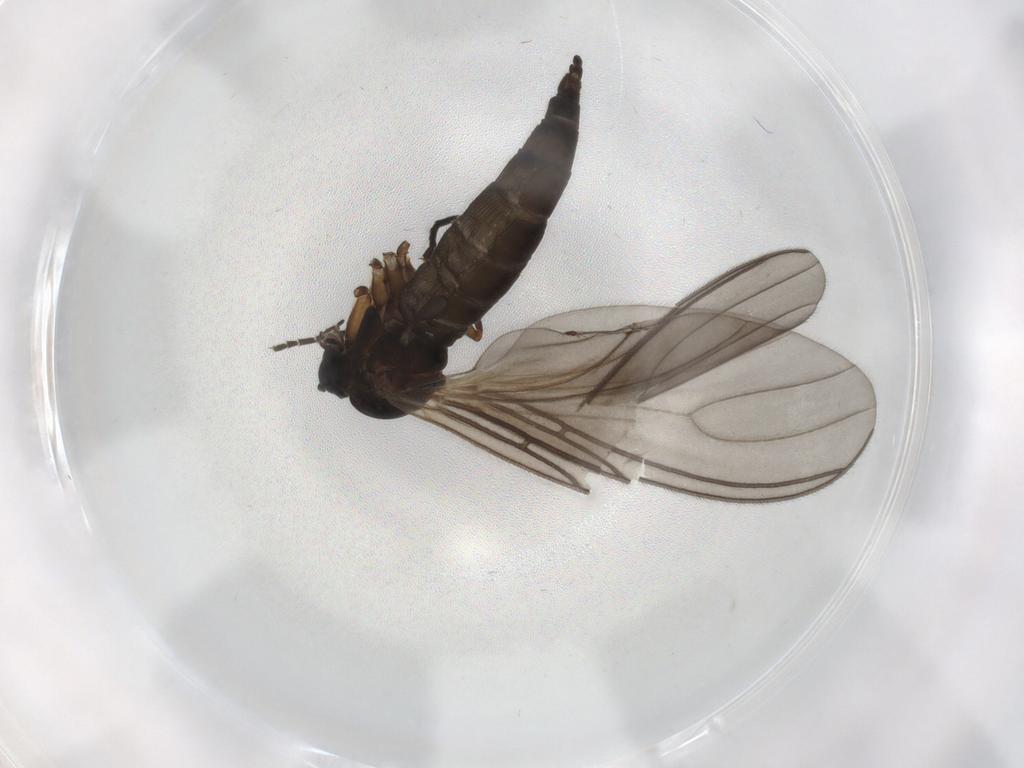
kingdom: Animalia
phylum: Arthropoda
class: Insecta
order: Diptera
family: Sciaridae
